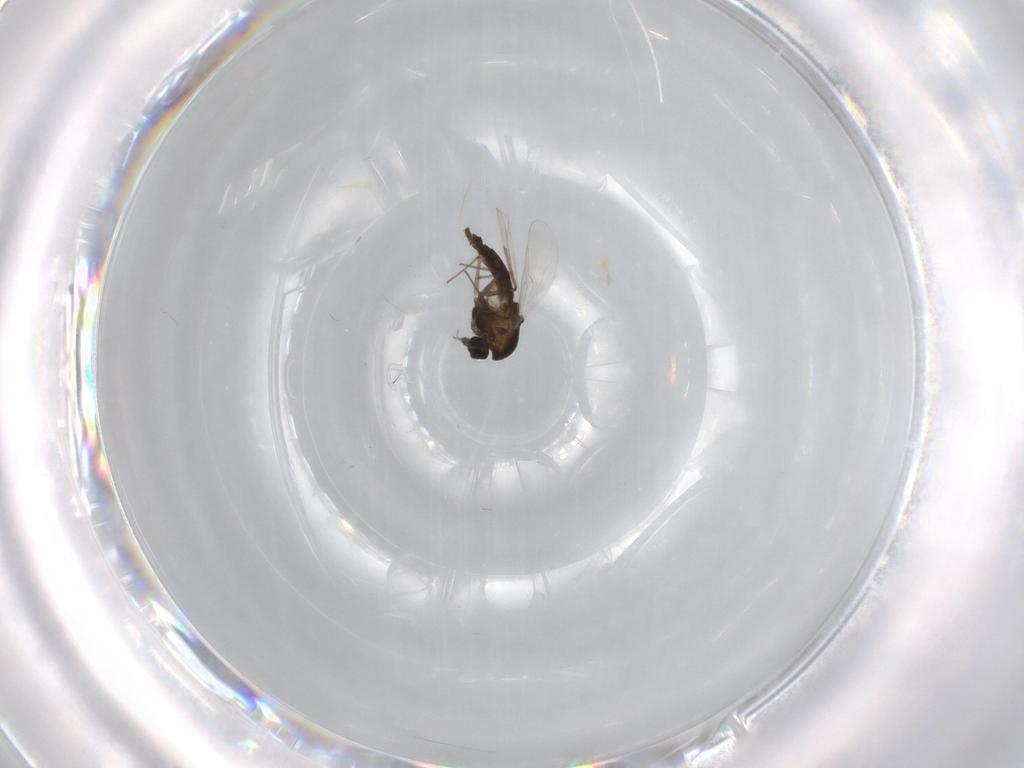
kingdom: Animalia
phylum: Arthropoda
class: Insecta
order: Diptera
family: Chironomidae
